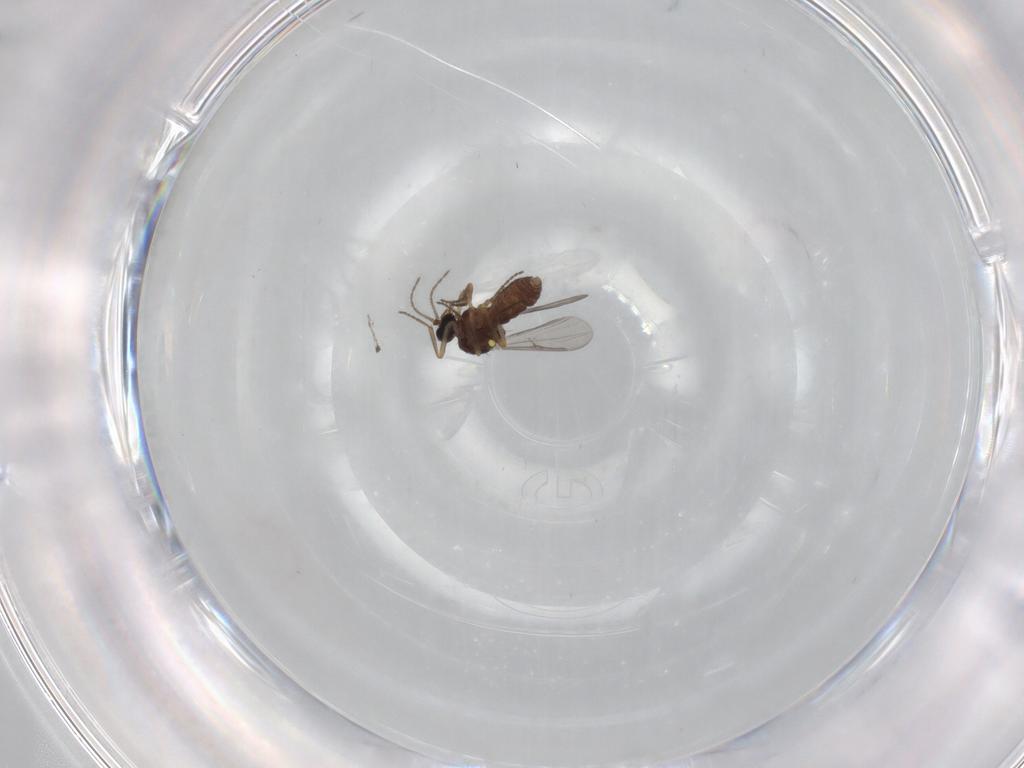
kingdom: Animalia
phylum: Arthropoda
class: Insecta
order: Diptera
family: Ceratopogonidae
